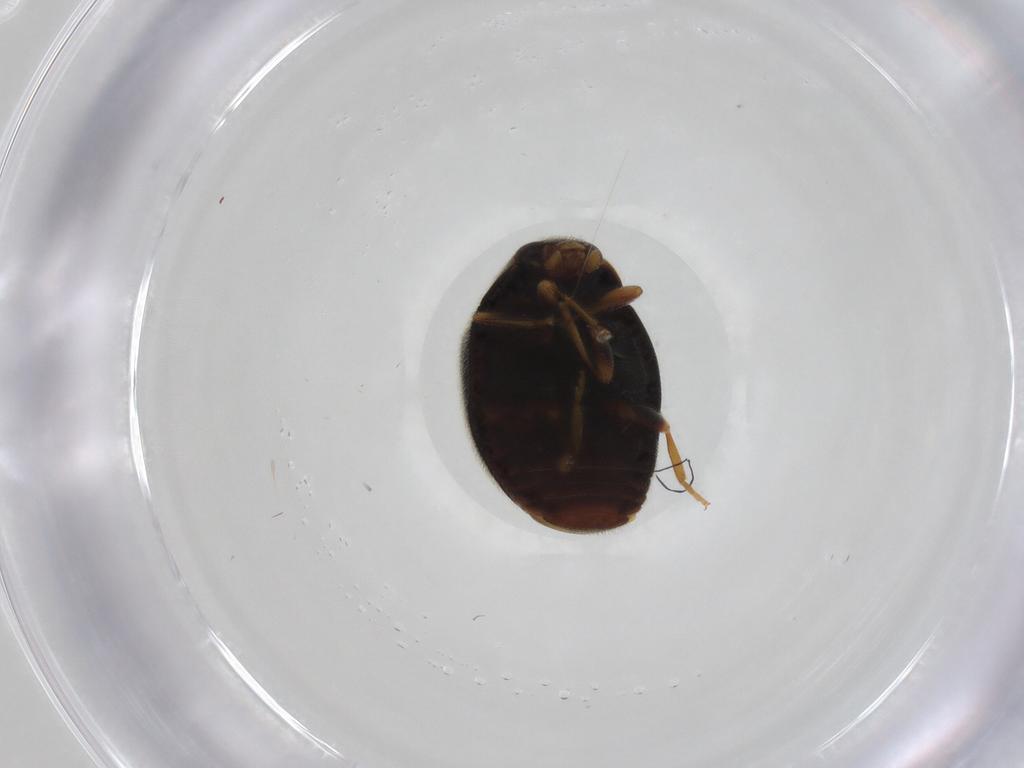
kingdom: Animalia
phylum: Arthropoda
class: Insecta
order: Coleoptera
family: Coccinellidae
